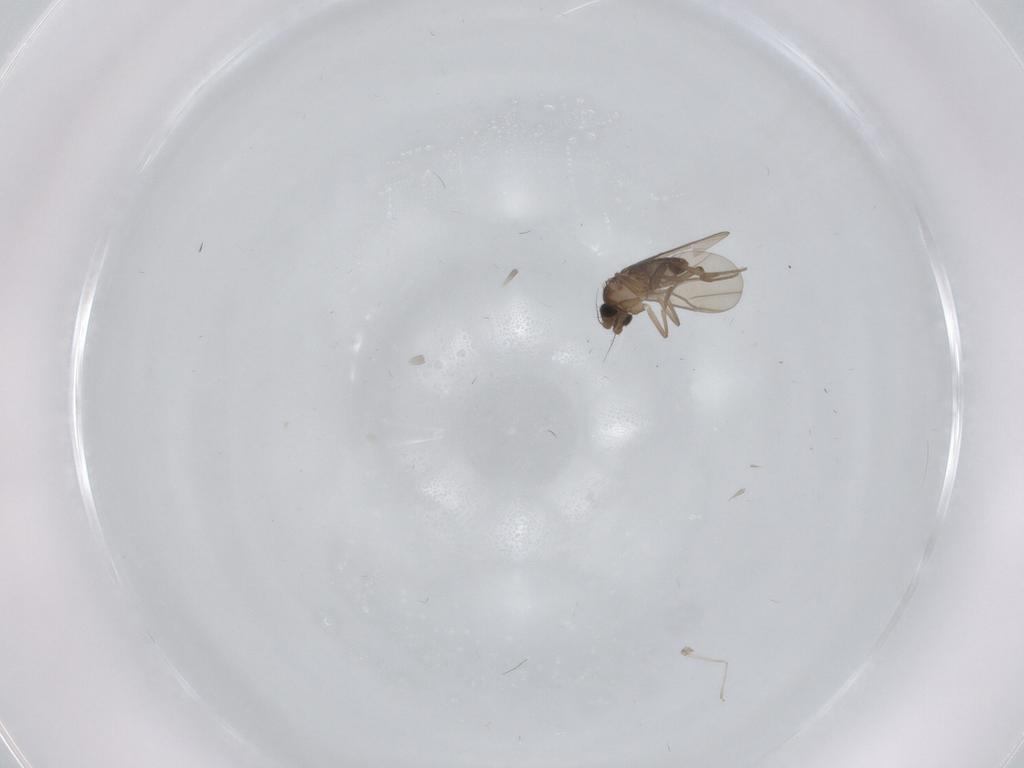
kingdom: Animalia
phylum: Arthropoda
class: Insecta
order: Diptera
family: Phoridae
